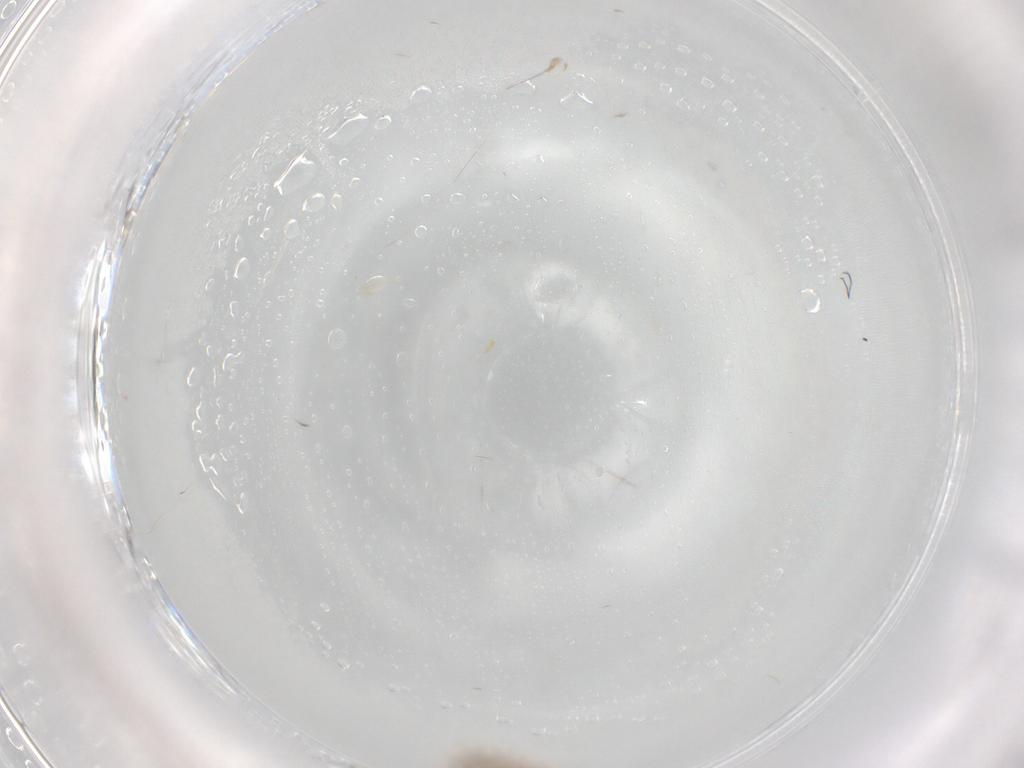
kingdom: Animalia
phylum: Arthropoda
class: Insecta
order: Diptera
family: Cecidomyiidae
